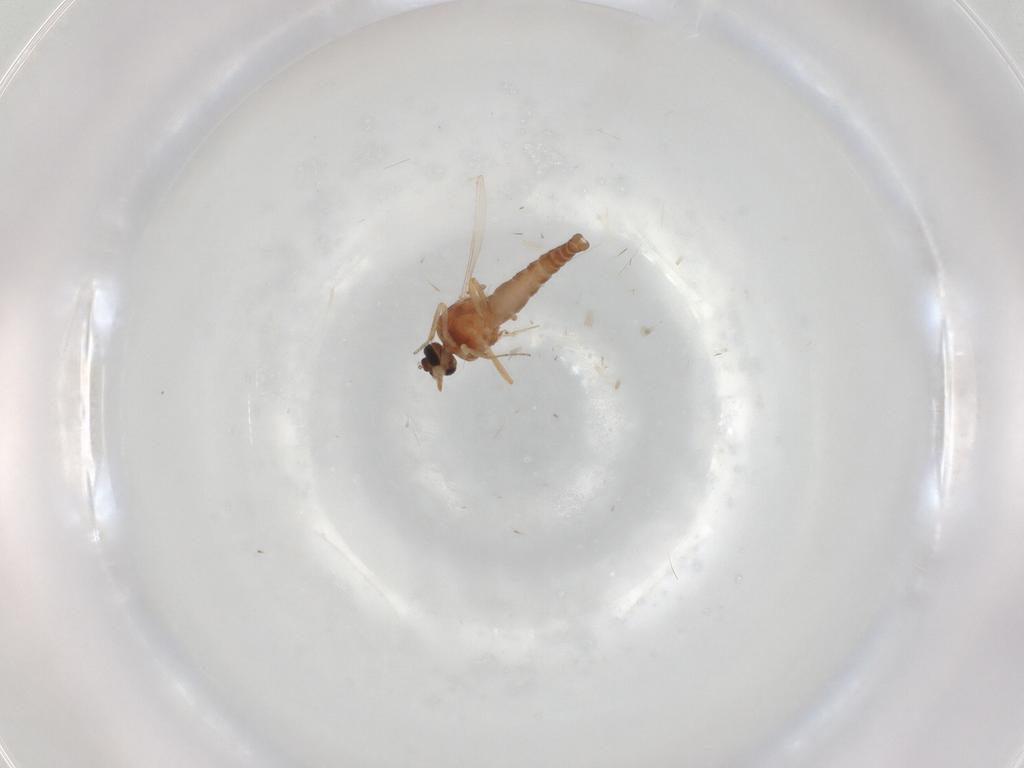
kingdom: Animalia
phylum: Arthropoda
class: Insecta
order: Diptera
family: Ceratopogonidae
